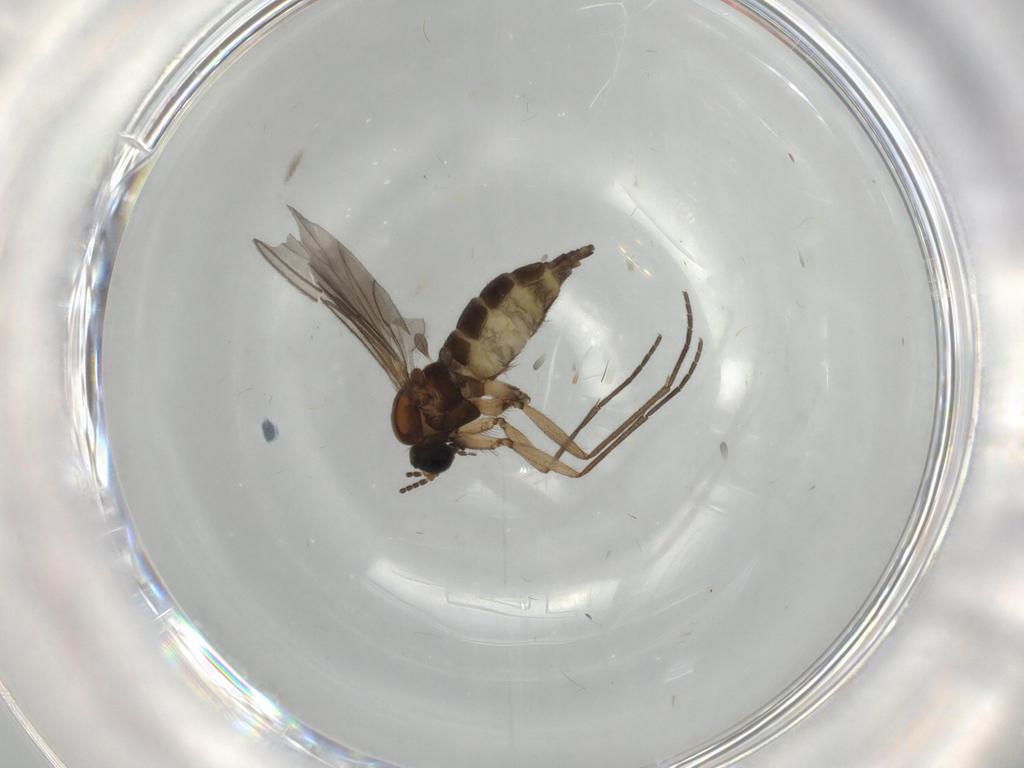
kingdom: Animalia
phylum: Arthropoda
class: Insecta
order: Diptera
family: Sciaridae
